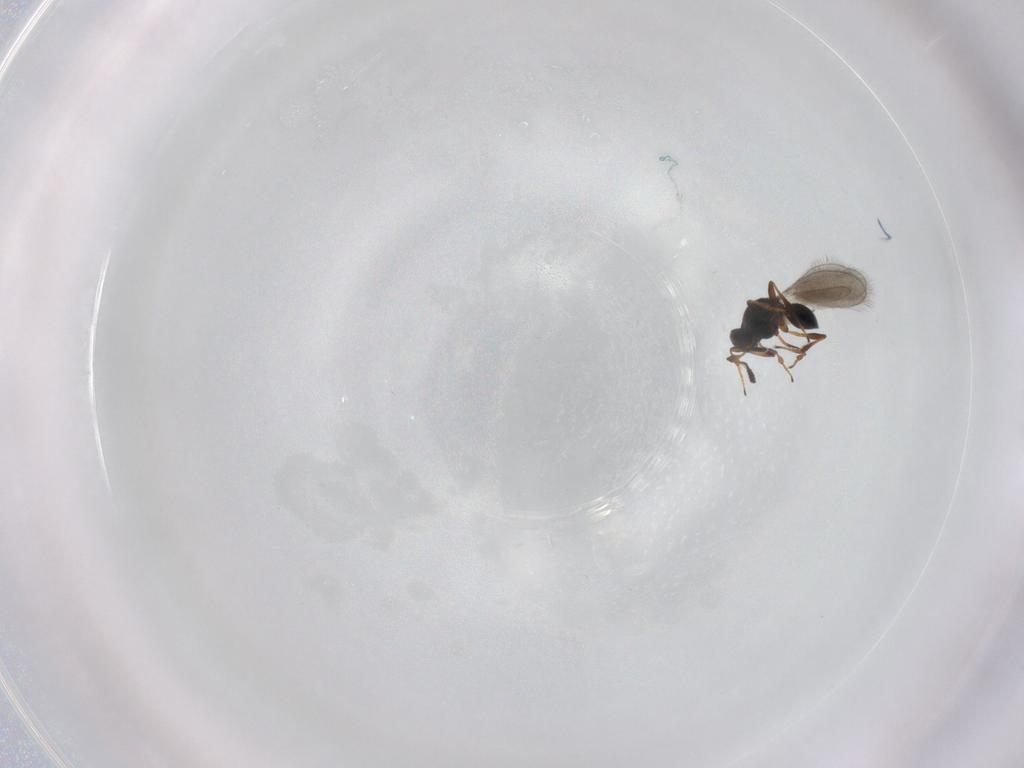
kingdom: Animalia
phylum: Arthropoda
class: Insecta
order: Hymenoptera
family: Platygastridae
